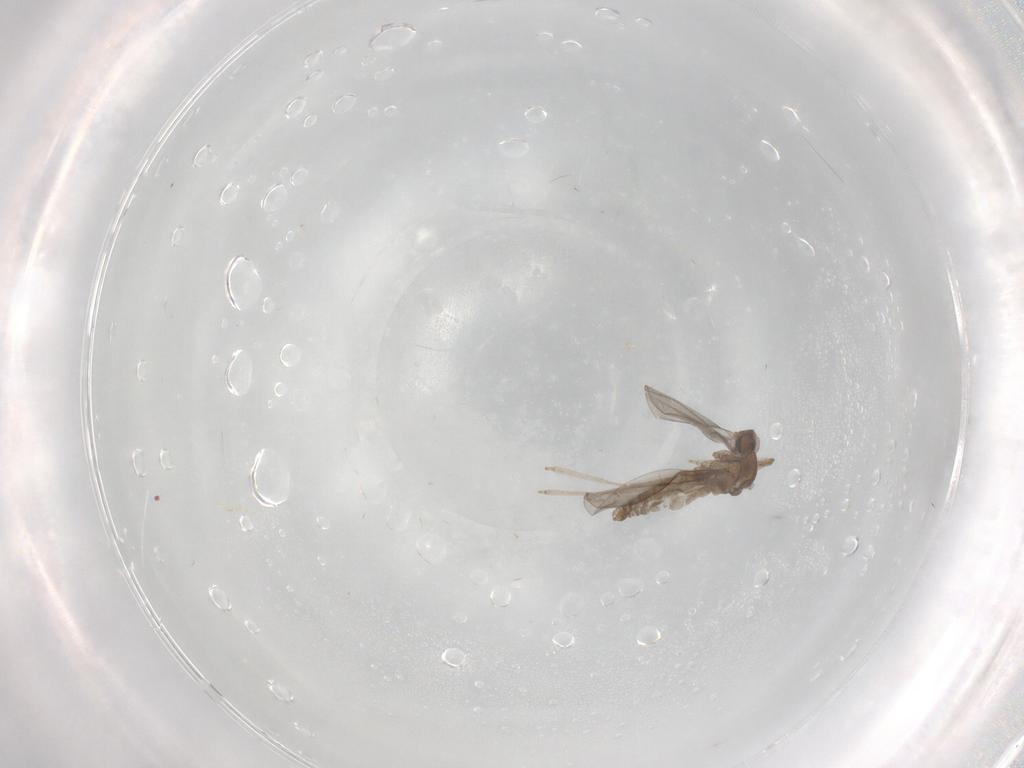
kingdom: Animalia
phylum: Arthropoda
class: Insecta
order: Diptera
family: Cecidomyiidae
